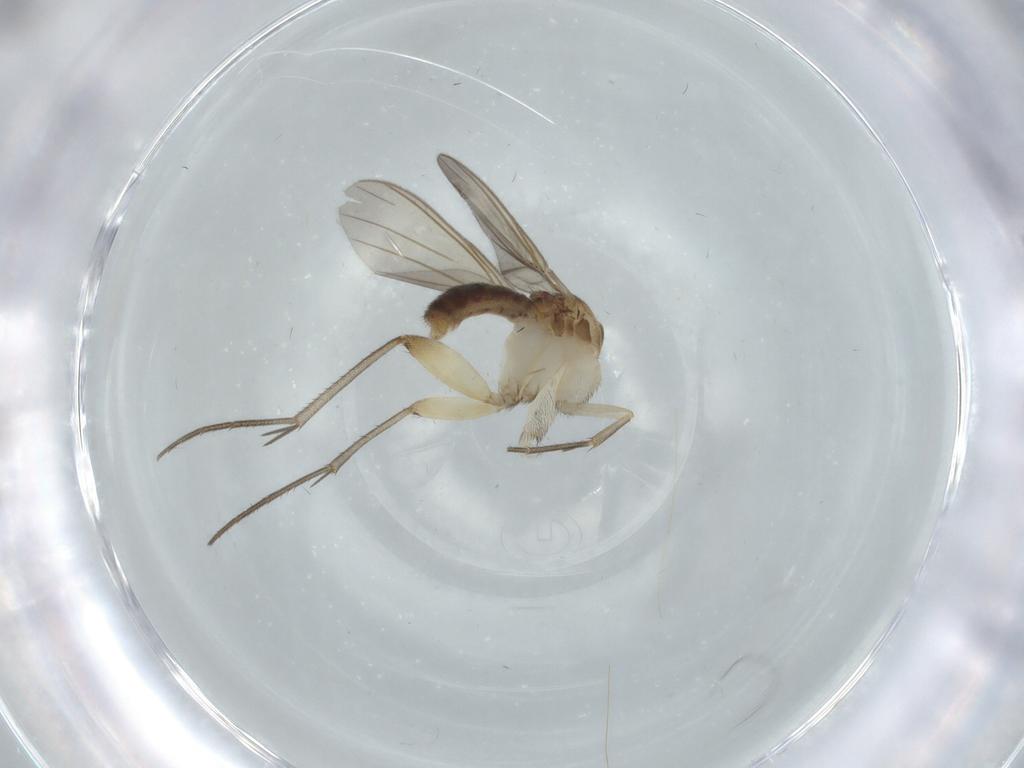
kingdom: Animalia
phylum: Arthropoda
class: Insecta
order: Diptera
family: Mycetophilidae
